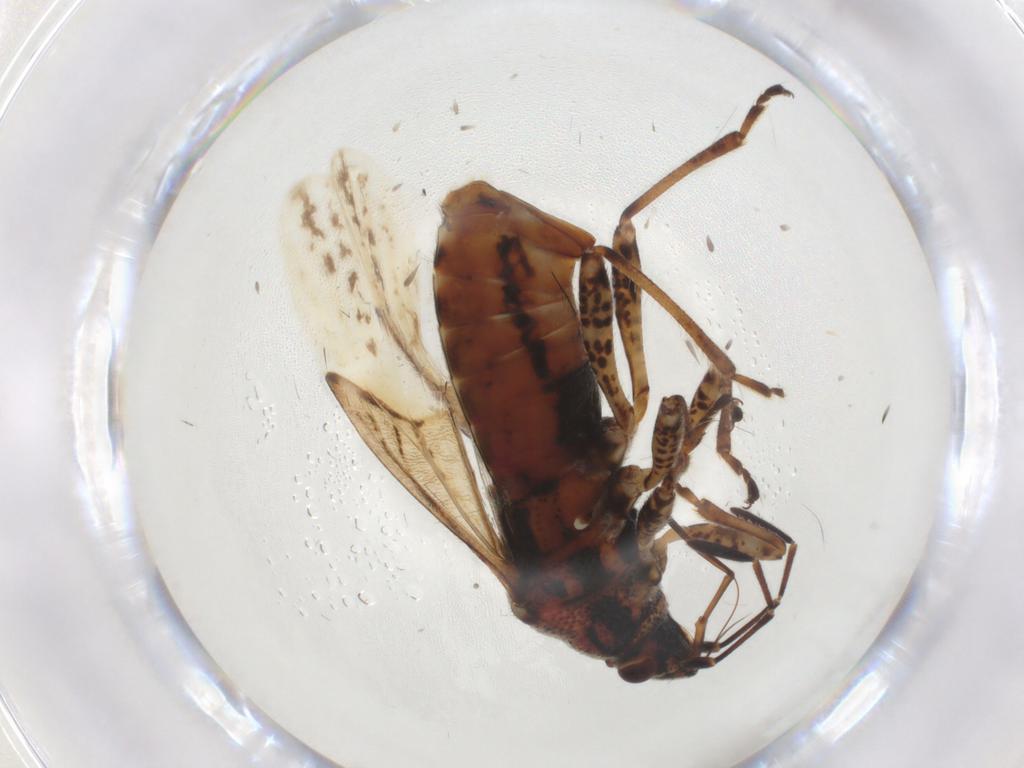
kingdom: Animalia
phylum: Arthropoda
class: Insecta
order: Hemiptera
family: Lygaeidae
